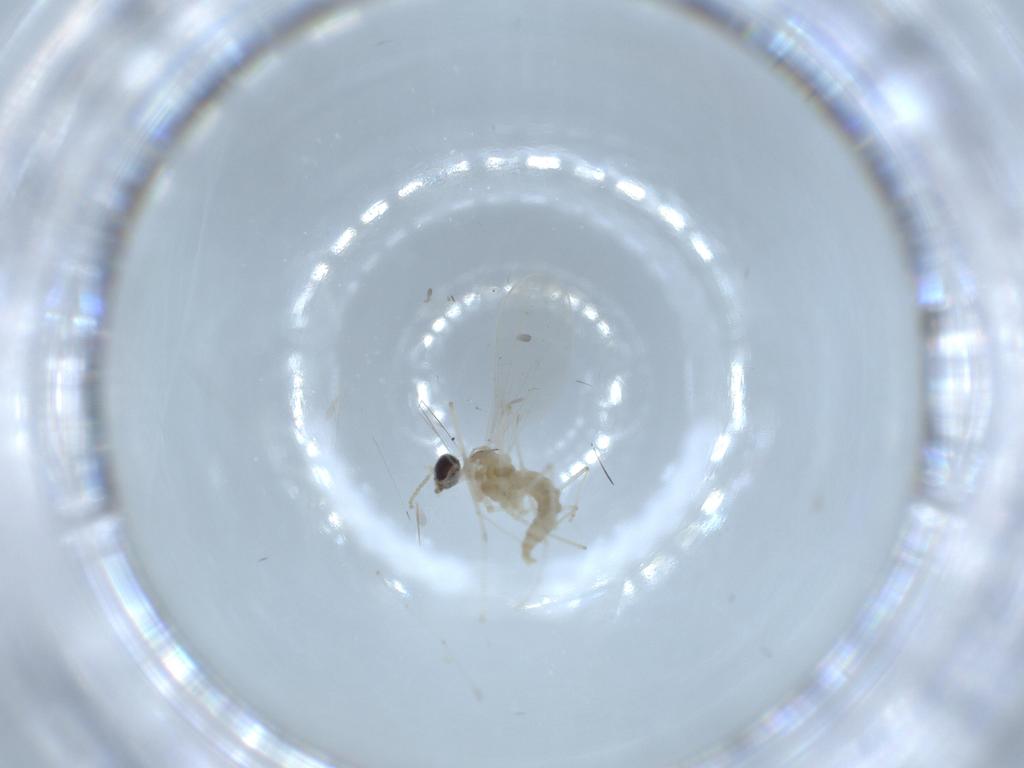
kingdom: Animalia
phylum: Arthropoda
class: Insecta
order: Diptera
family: Cecidomyiidae
